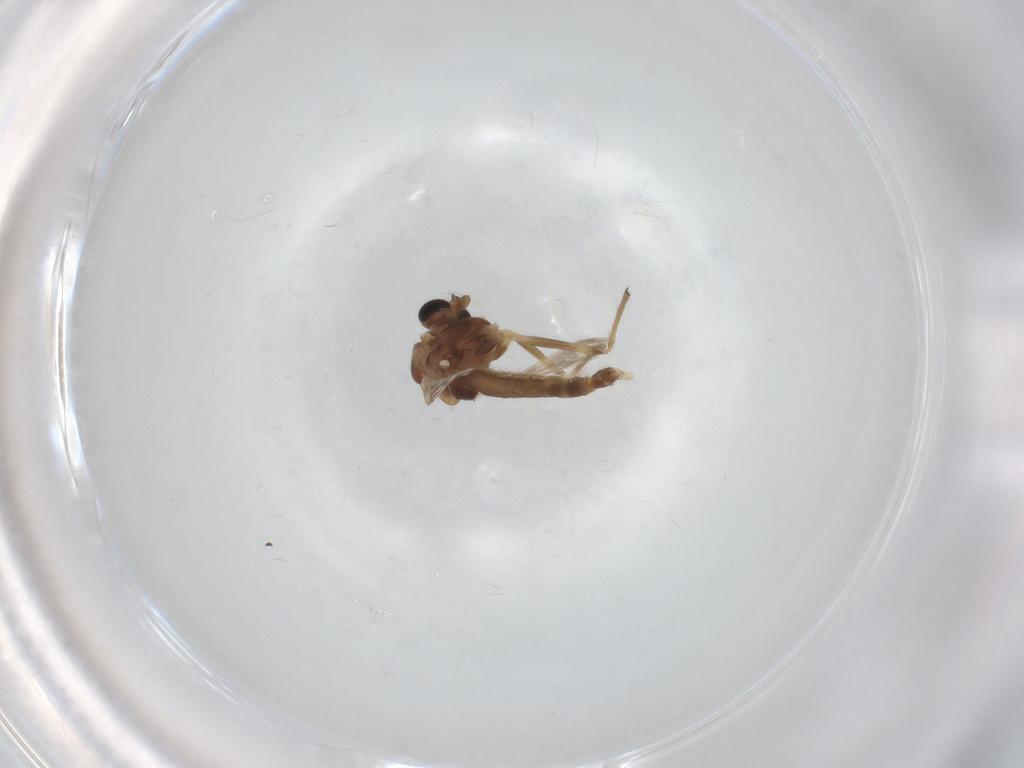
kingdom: Animalia
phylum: Arthropoda
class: Insecta
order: Diptera
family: Chironomidae
